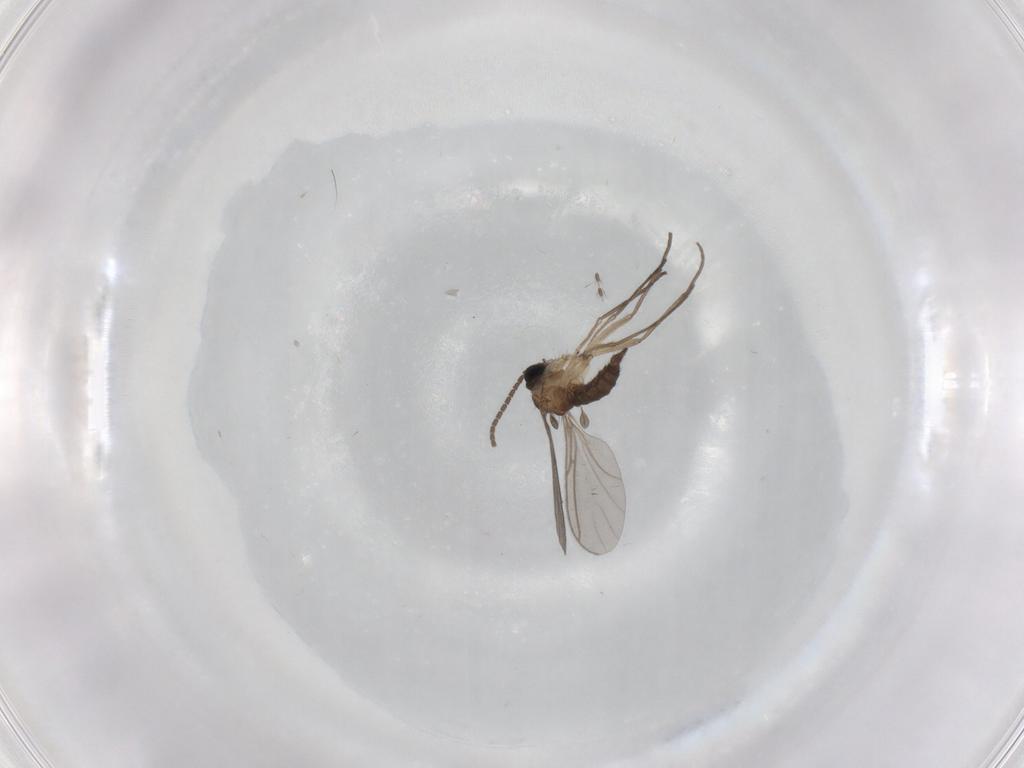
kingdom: Animalia
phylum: Arthropoda
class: Insecta
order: Diptera
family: Sciaridae
